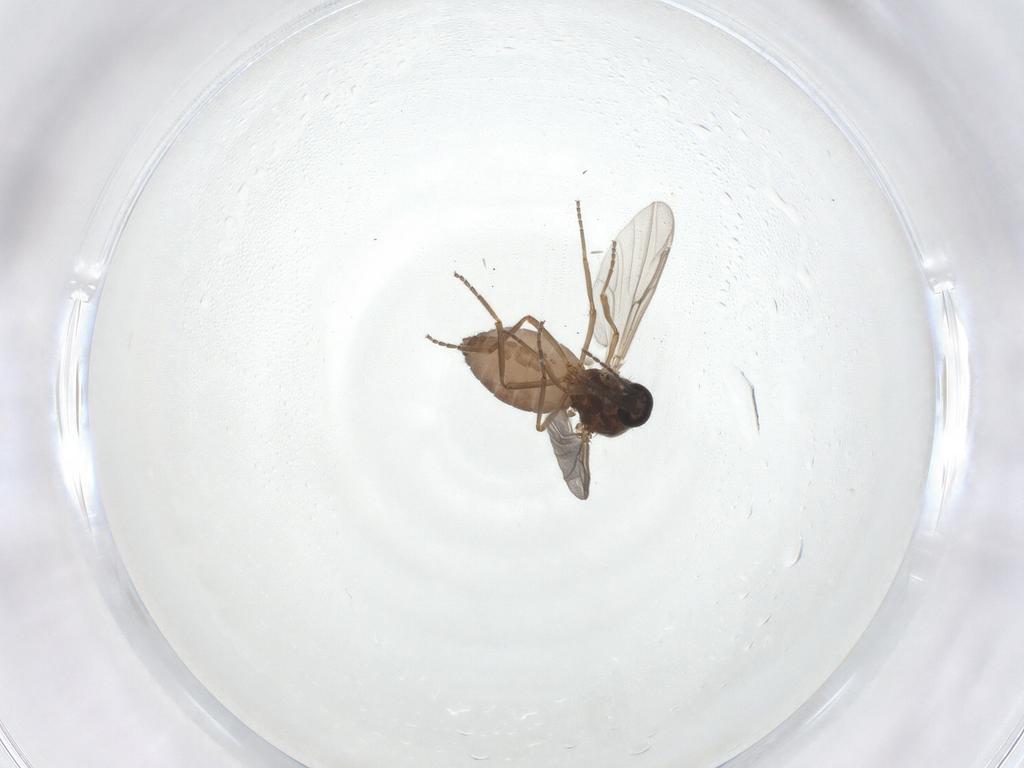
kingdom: Animalia
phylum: Arthropoda
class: Insecta
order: Diptera
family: Ceratopogonidae
